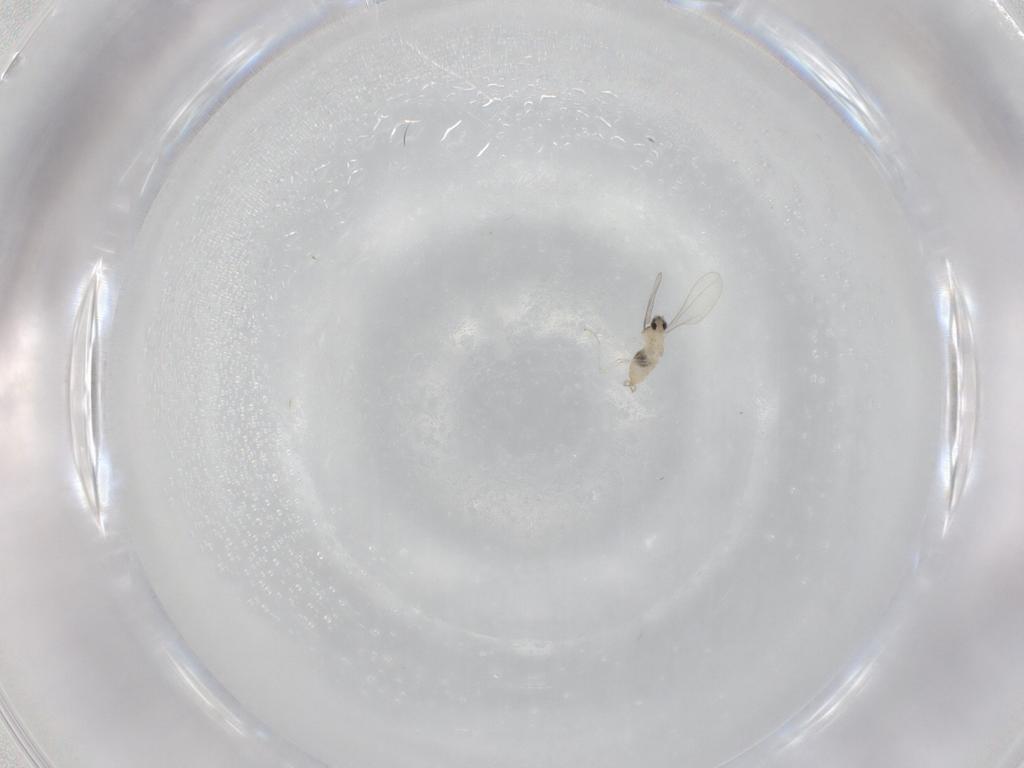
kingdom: Animalia
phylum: Arthropoda
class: Insecta
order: Diptera
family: Cecidomyiidae
